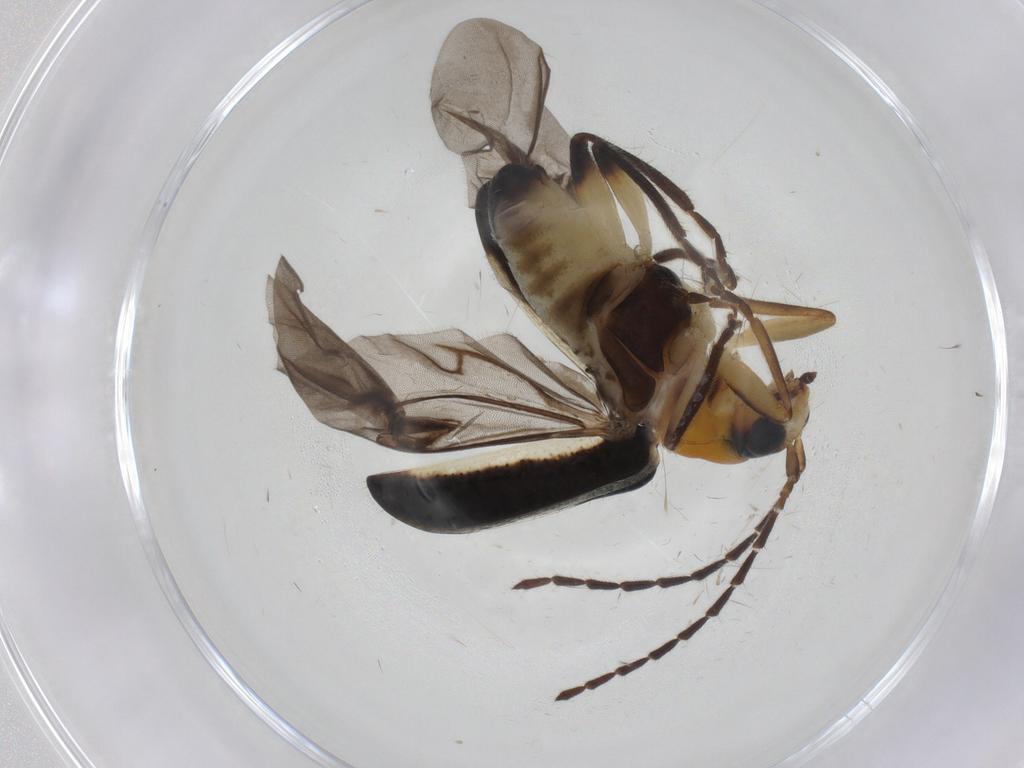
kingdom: Animalia
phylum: Arthropoda
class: Insecta
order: Coleoptera
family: Chrysomelidae
